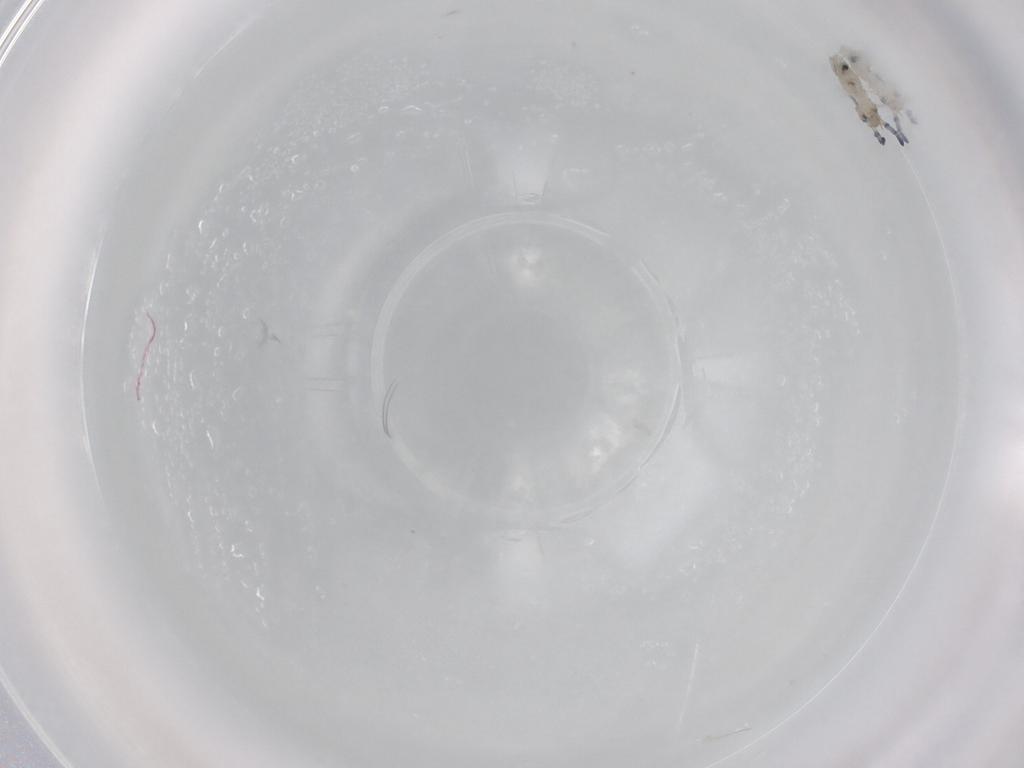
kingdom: Animalia
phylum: Arthropoda
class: Collembola
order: Entomobryomorpha
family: Entomobryidae
